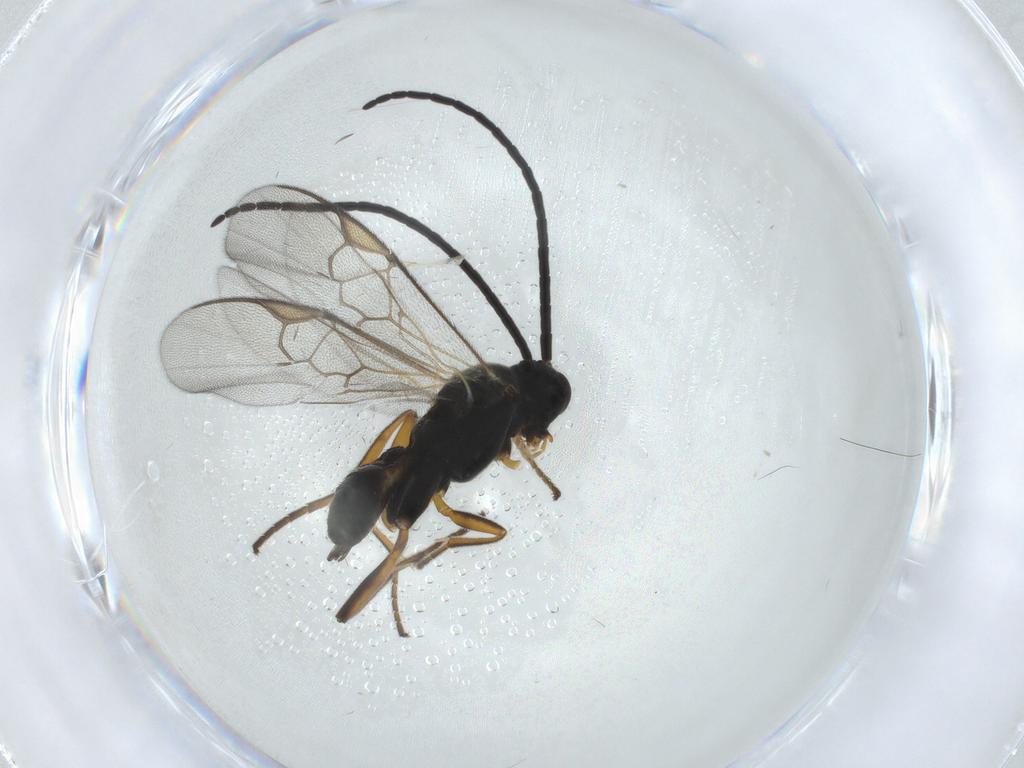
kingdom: Animalia
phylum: Arthropoda
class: Insecta
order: Hymenoptera
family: Braconidae
